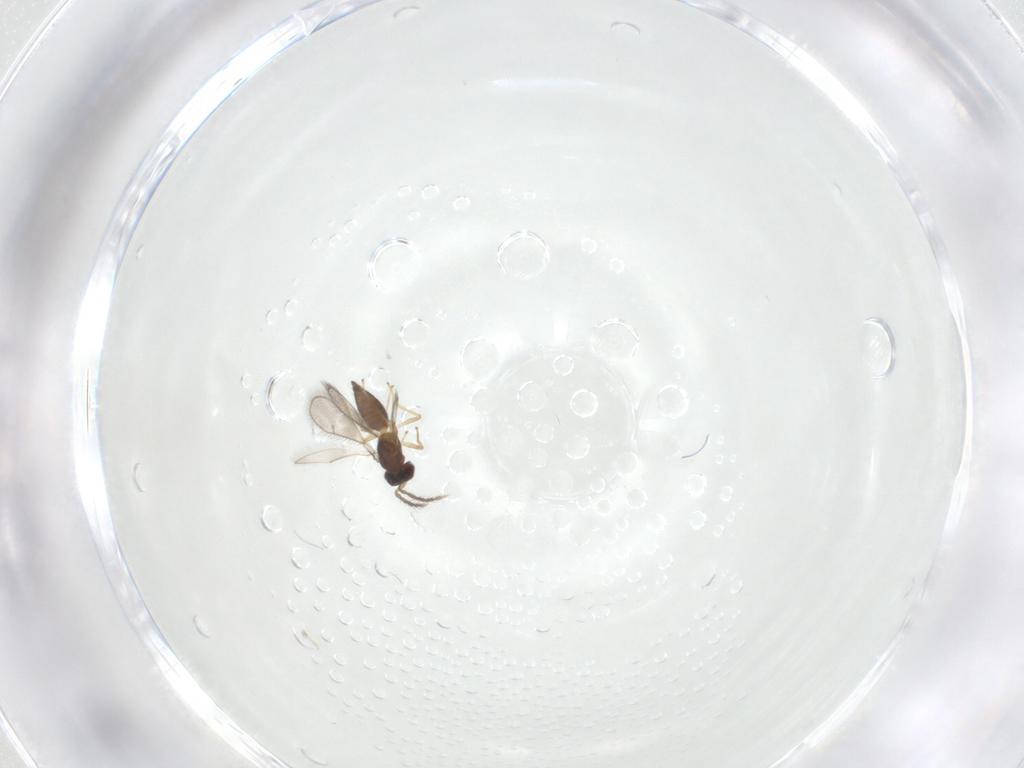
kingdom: Animalia
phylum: Arthropoda
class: Insecta
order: Hymenoptera
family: Bethylidae
